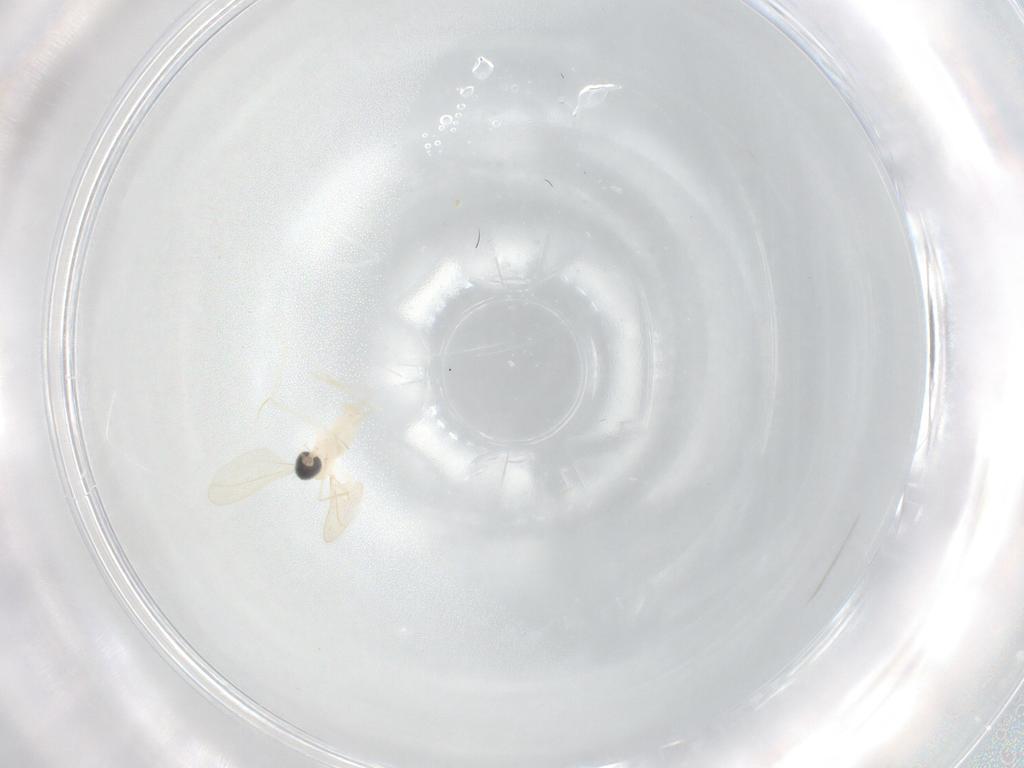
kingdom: Animalia
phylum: Arthropoda
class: Insecta
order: Diptera
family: Cecidomyiidae
